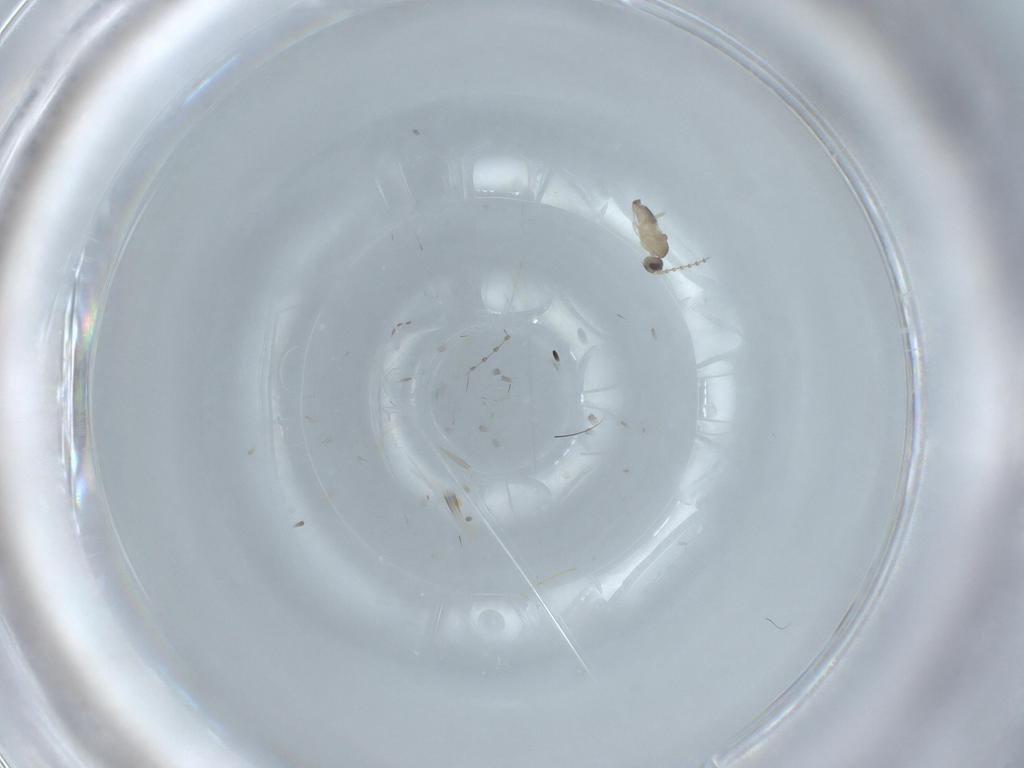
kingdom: Animalia
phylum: Arthropoda
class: Insecta
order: Diptera
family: Cecidomyiidae
